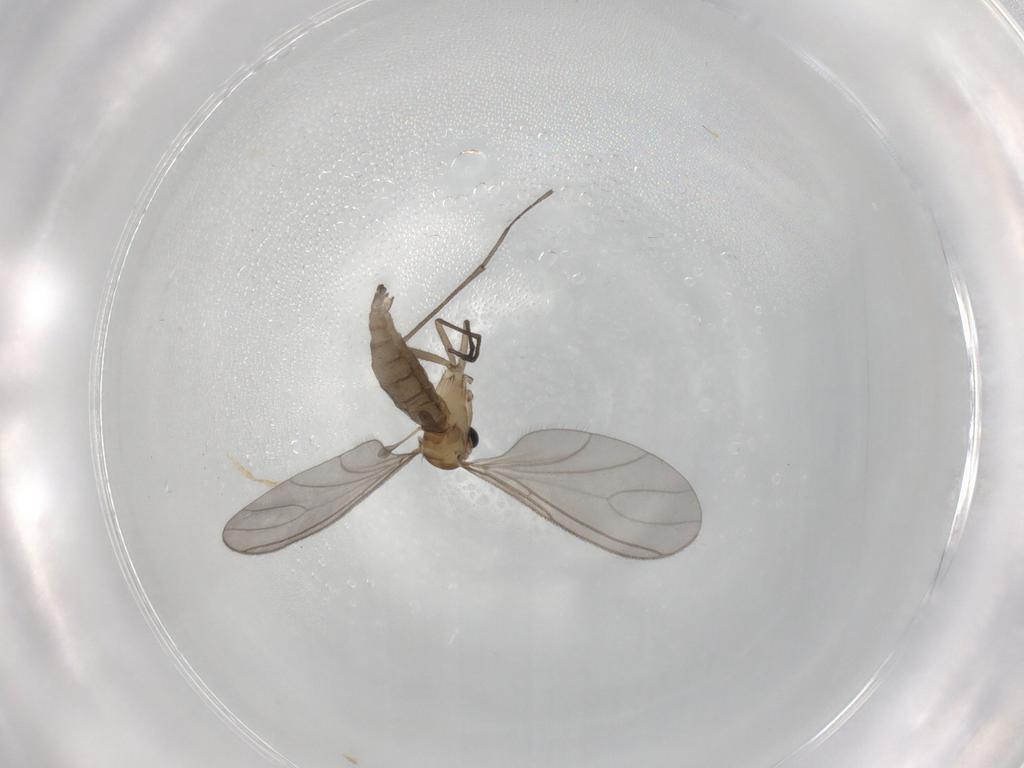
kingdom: Animalia
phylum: Arthropoda
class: Insecta
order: Diptera
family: Sciaridae
